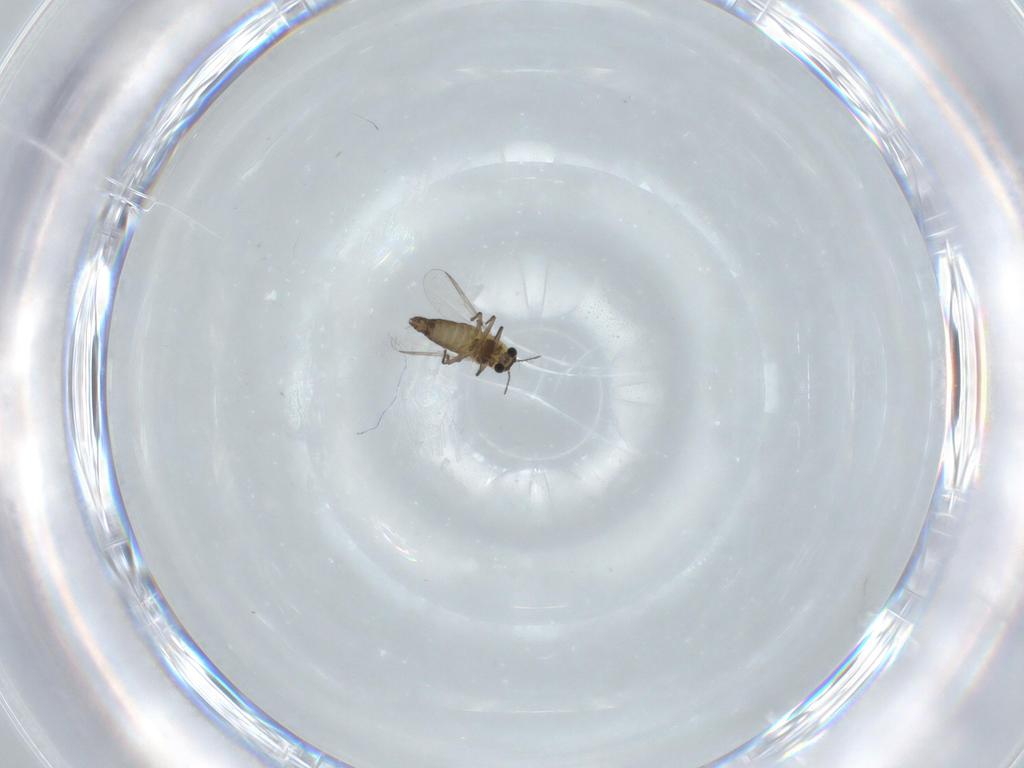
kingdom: Animalia
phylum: Arthropoda
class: Insecta
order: Diptera
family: Chironomidae
